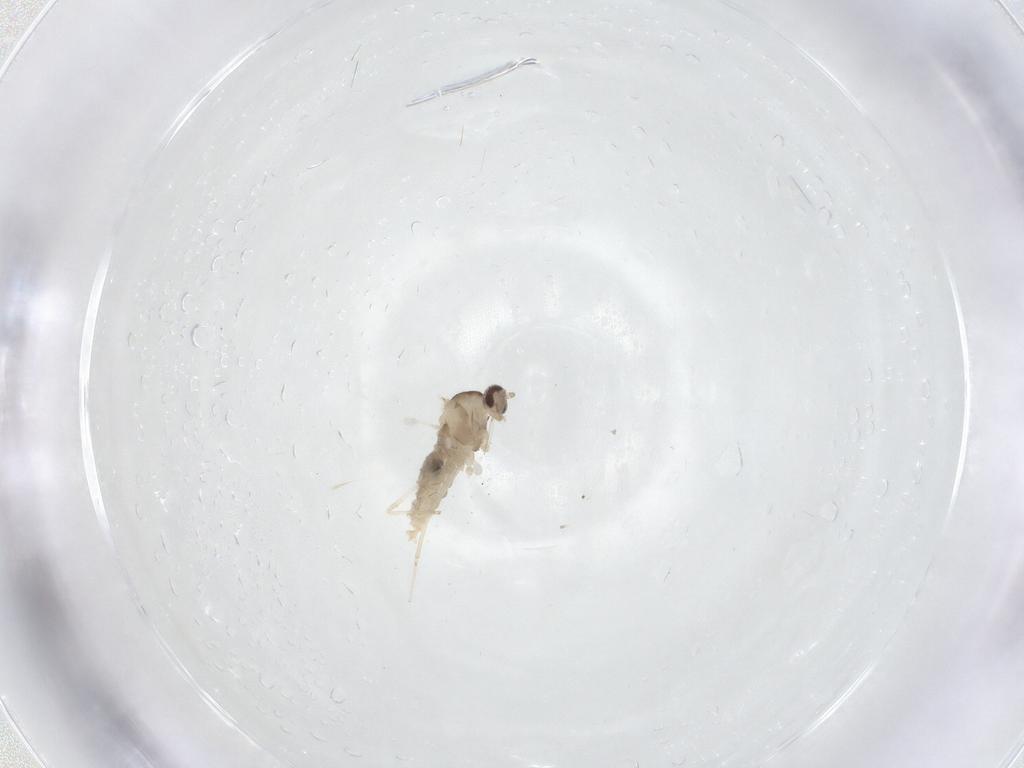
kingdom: Animalia
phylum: Arthropoda
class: Insecta
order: Diptera
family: Cecidomyiidae
